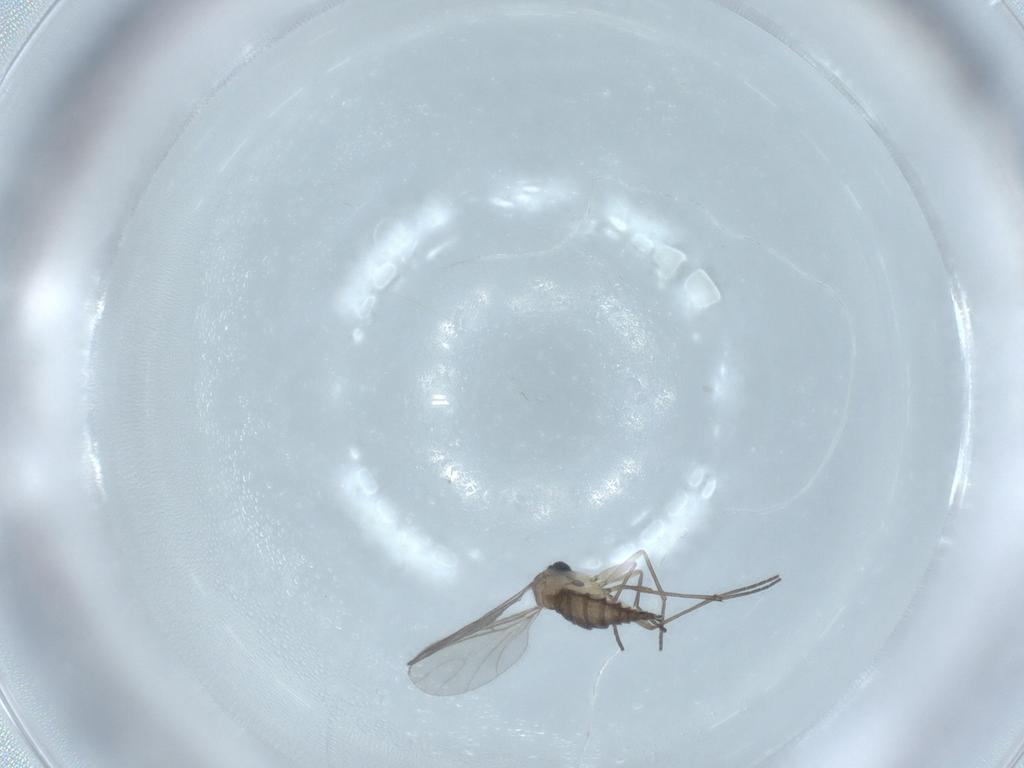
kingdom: Animalia
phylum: Arthropoda
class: Insecta
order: Diptera
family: Sciaridae
